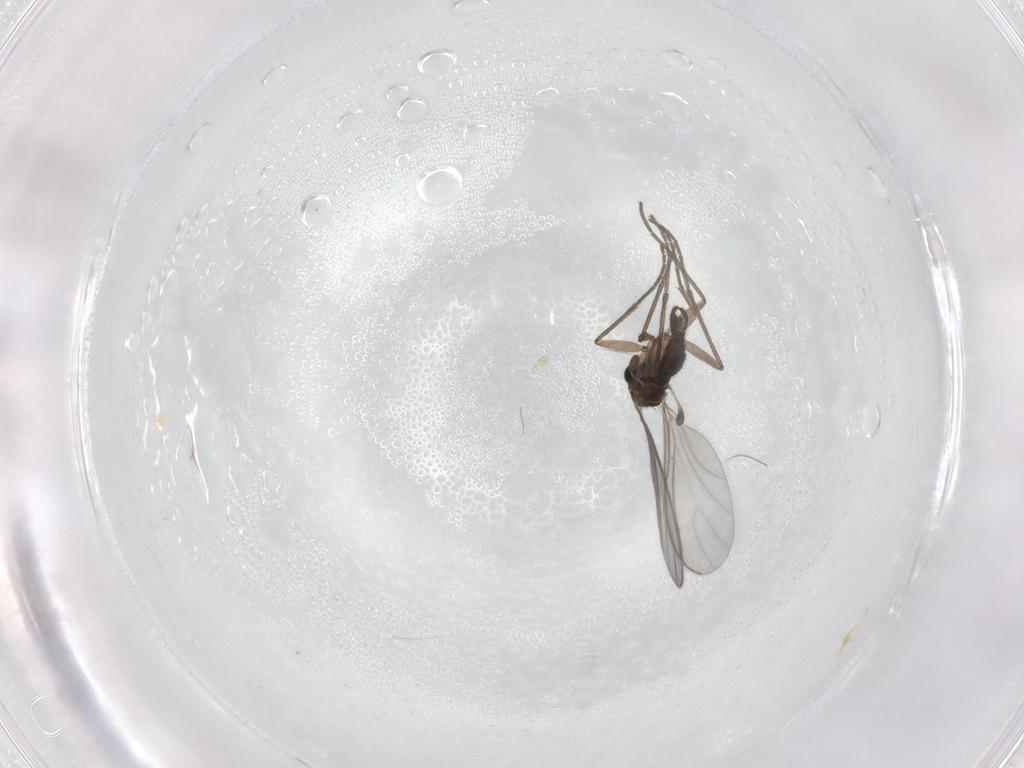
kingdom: Animalia
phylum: Arthropoda
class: Insecta
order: Diptera
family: Sciaridae
